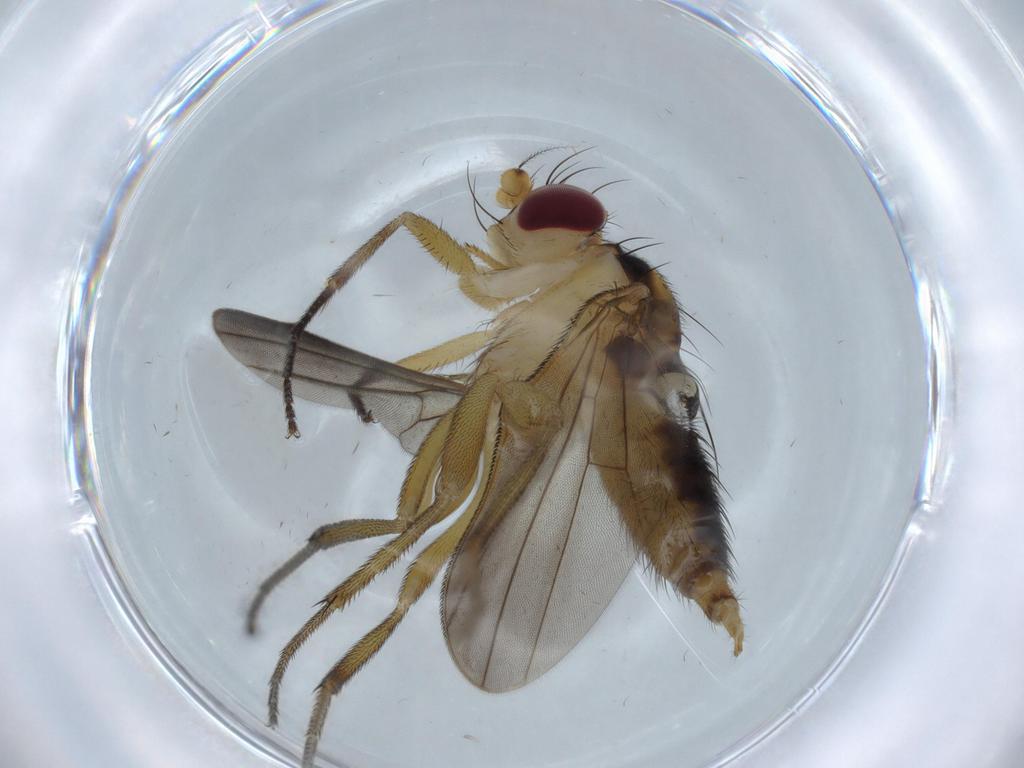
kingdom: Animalia
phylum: Arthropoda
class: Insecta
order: Diptera
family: Clusiidae
